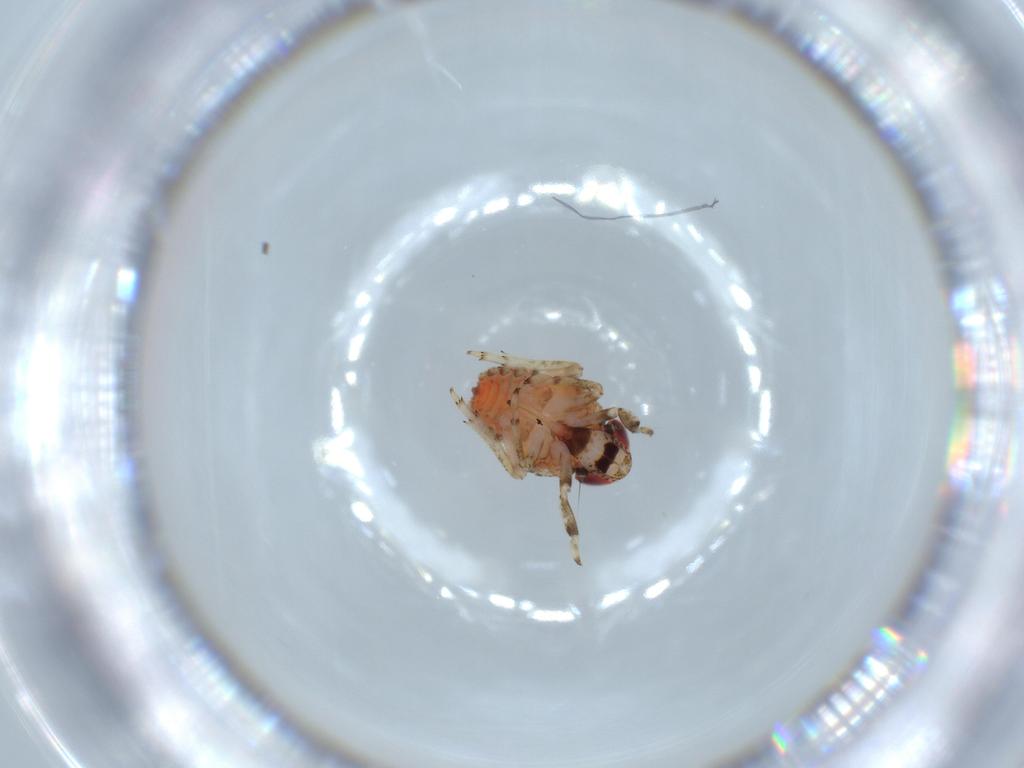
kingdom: Animalia
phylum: Arthropoda
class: Insecta
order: Hemiptera
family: Issidae
